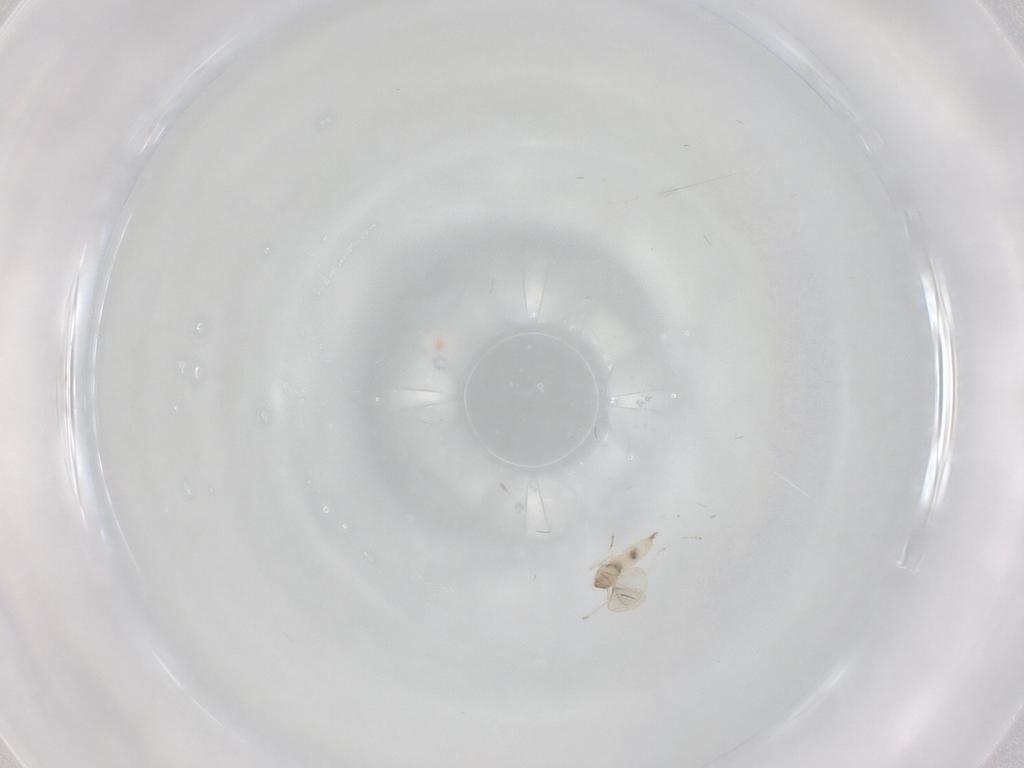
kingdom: Animalia
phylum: Arthropoda
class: Insecta
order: Diptera
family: Cecidomyiidae
